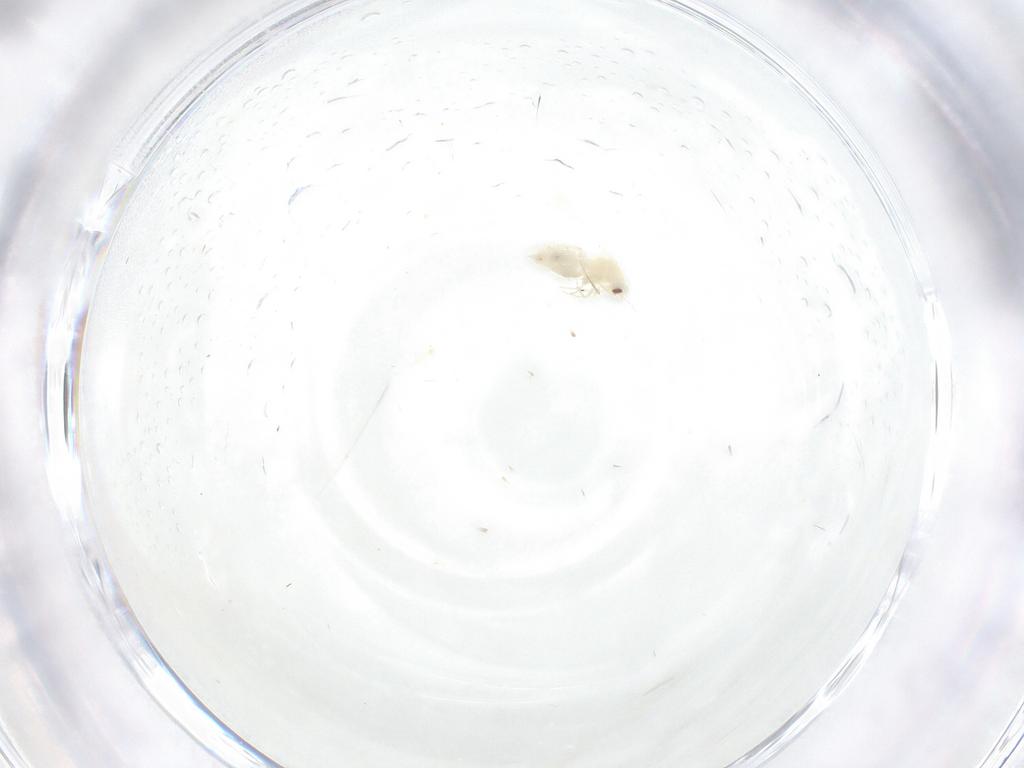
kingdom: Animalia
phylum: Arthropoda
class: Insecta
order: Hemiptera
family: Aleyrodidae
